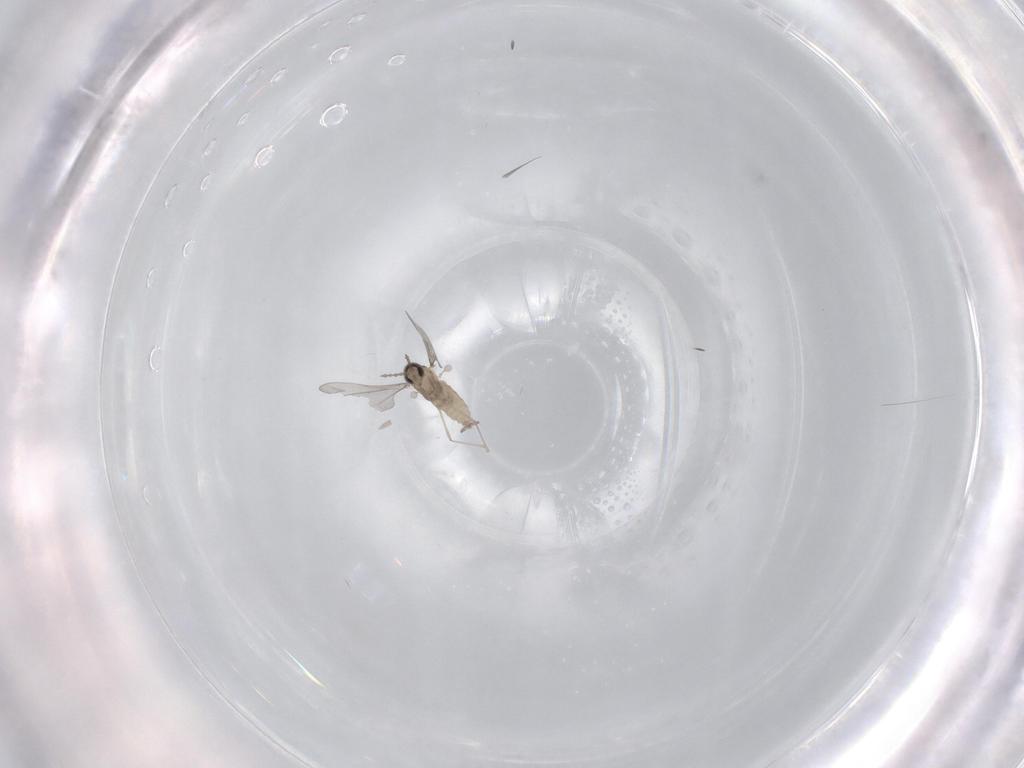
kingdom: Animalia
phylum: Arthropoda
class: Insecta
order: Diptera
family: Cecidomyiidae
